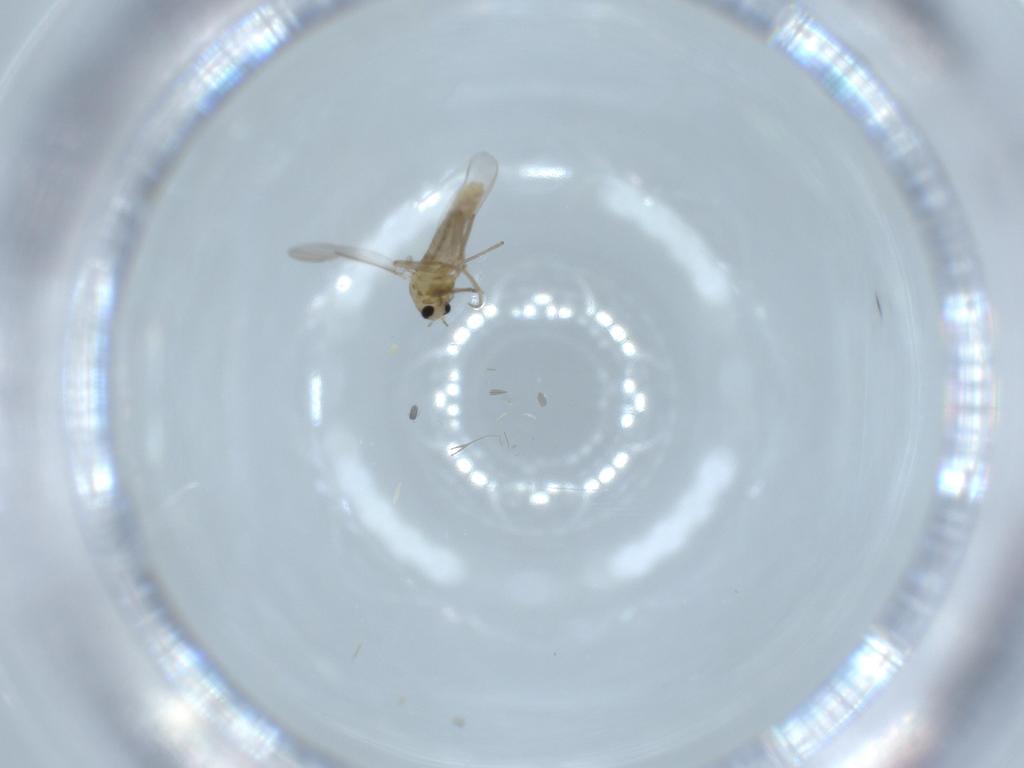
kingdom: Animalia
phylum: Arthropoda
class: Insecta
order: Diptera
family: Chironomidae
